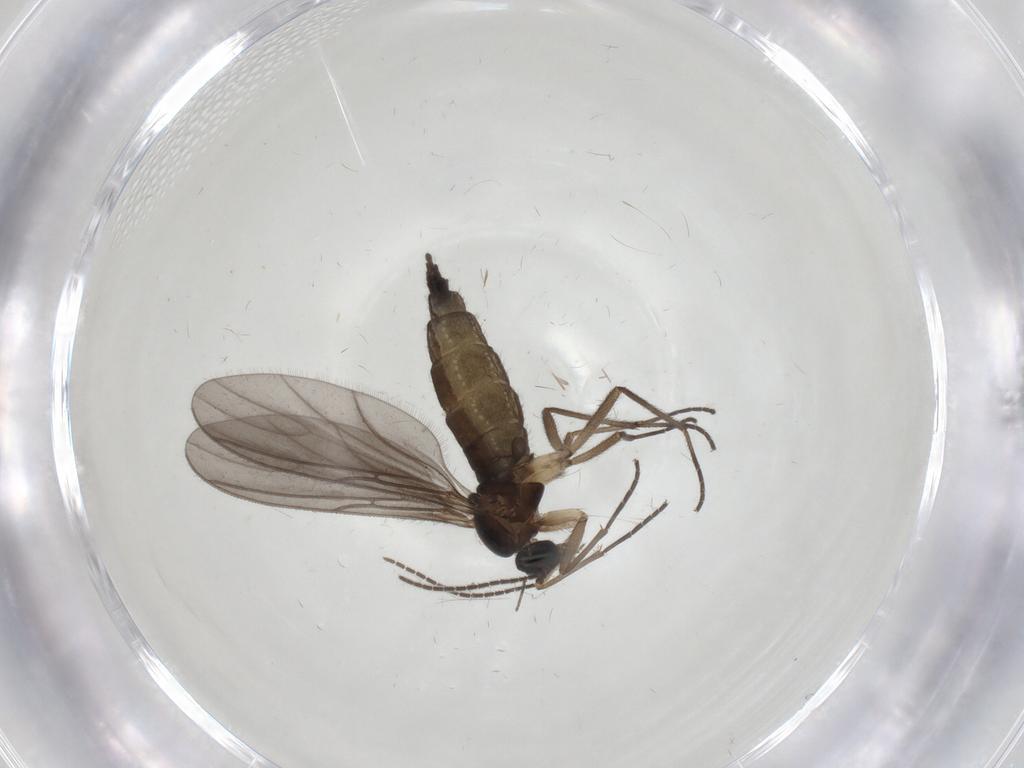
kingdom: Animalia
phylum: Arthropoda
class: Insecta
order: Diptera
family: Sciaridae
